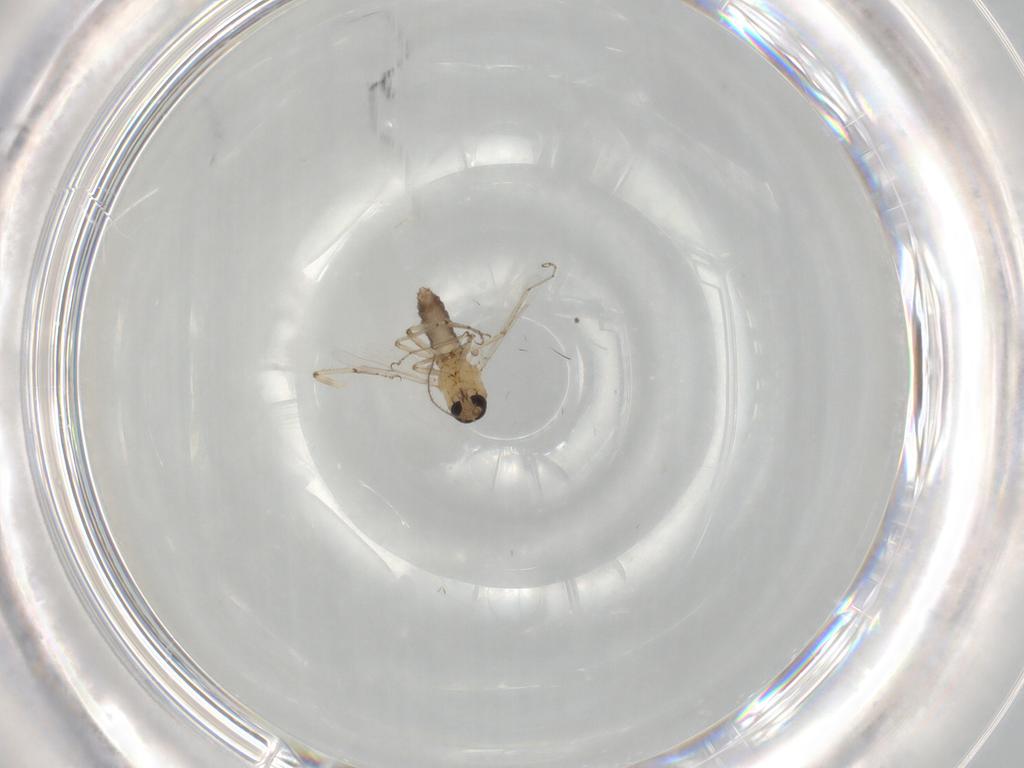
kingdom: Animalia
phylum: Arthropoda
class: Insecta
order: Diptera
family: Ceratopogonidae
